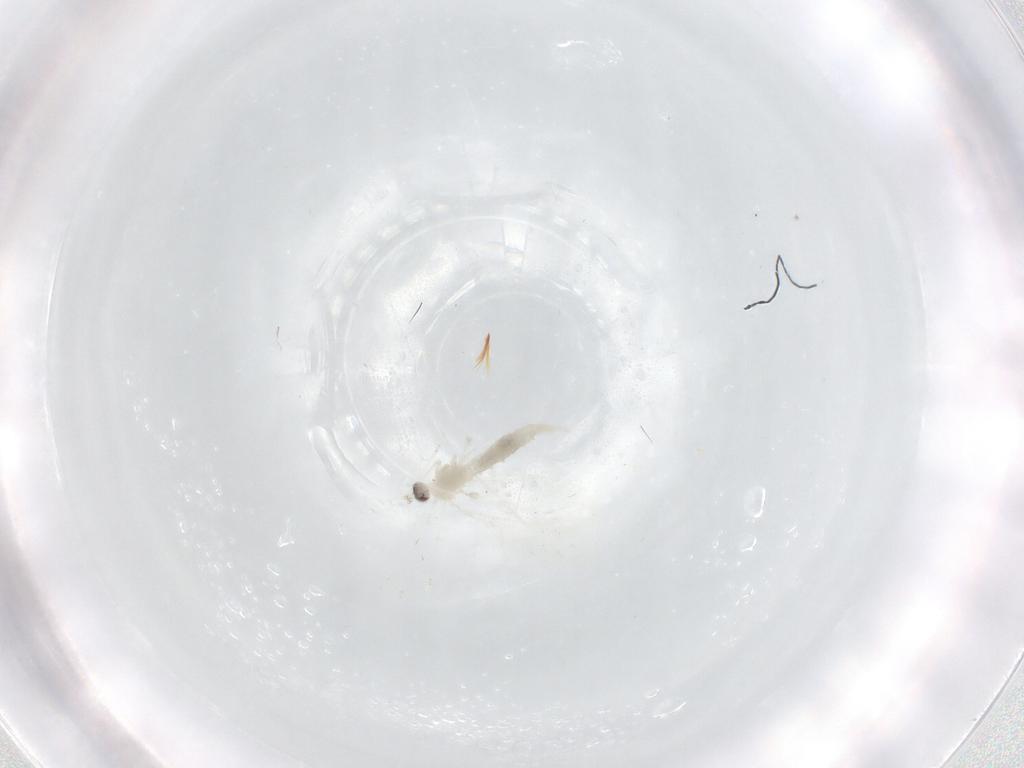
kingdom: Animalia
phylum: Arthropoda
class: Insecta
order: Diptera
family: Cecidomyiidae
